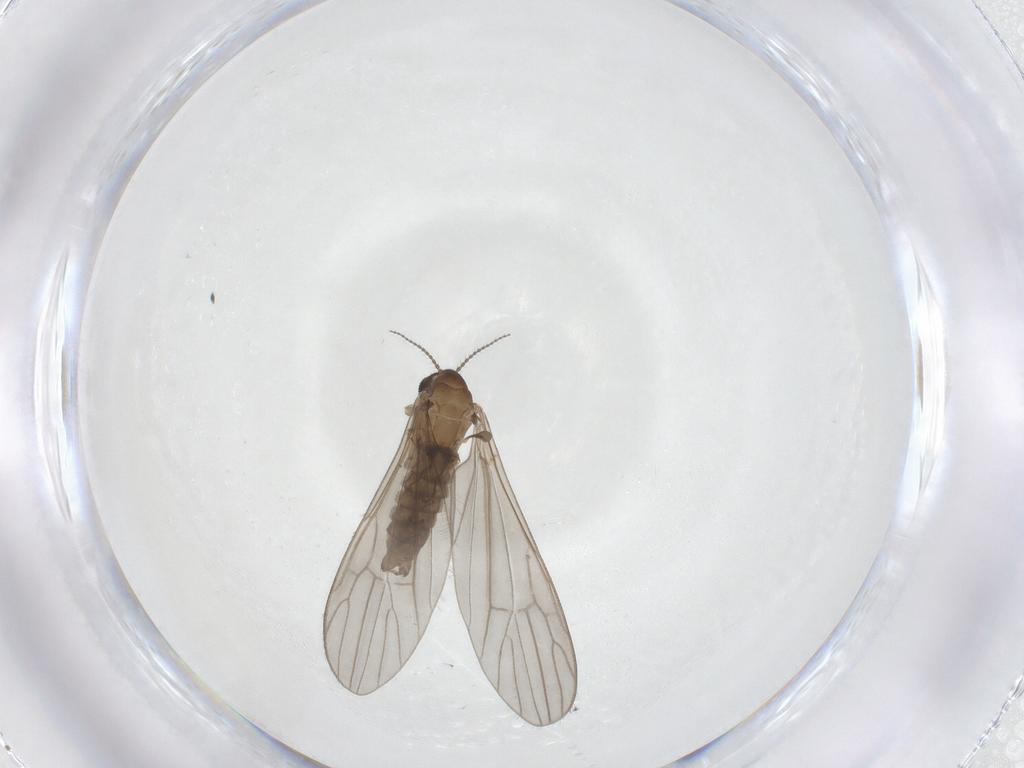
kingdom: Animalia
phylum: Arthropoda
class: Insecta
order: Diptera
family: Limoniidae
